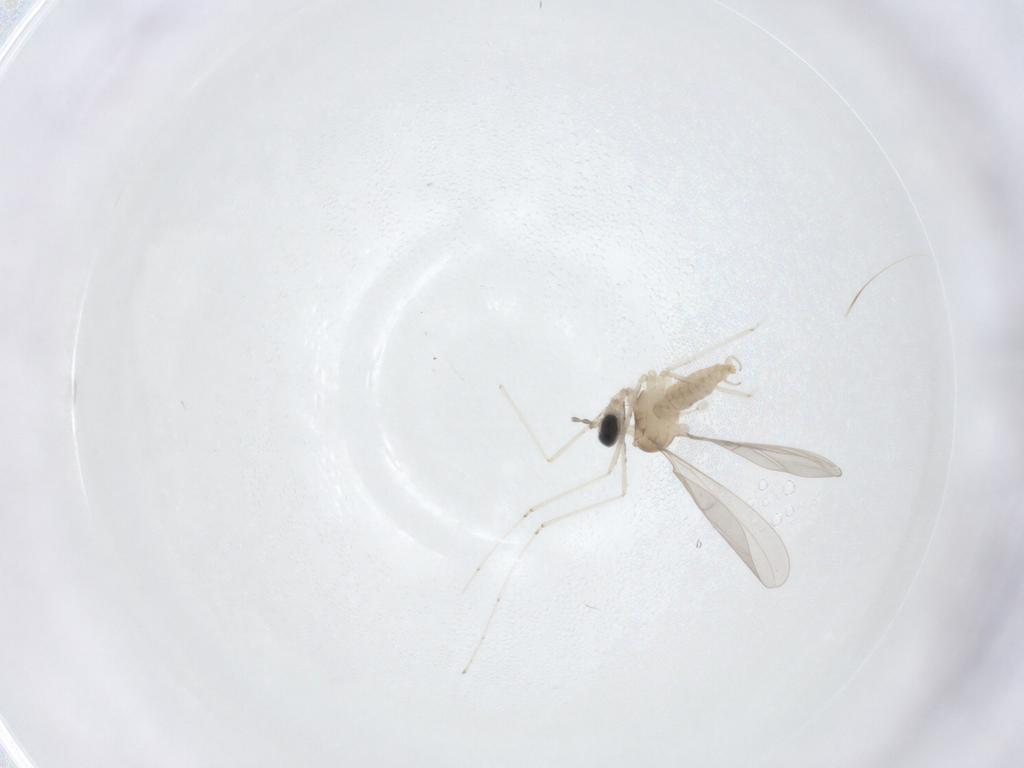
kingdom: Animalia
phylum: Arthropoda
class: Insecta
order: Diptera
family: Cecidomyiidae
